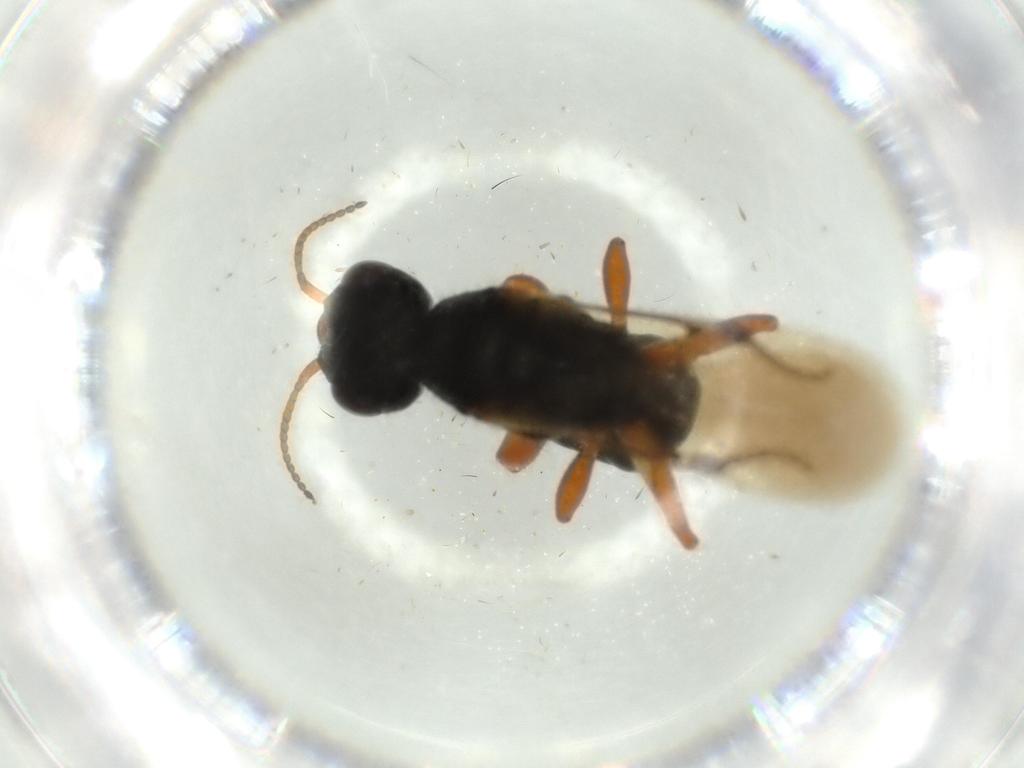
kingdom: Animalia
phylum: Arthropoda
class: Insecta
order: Hymenoptera
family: Bethylidae
